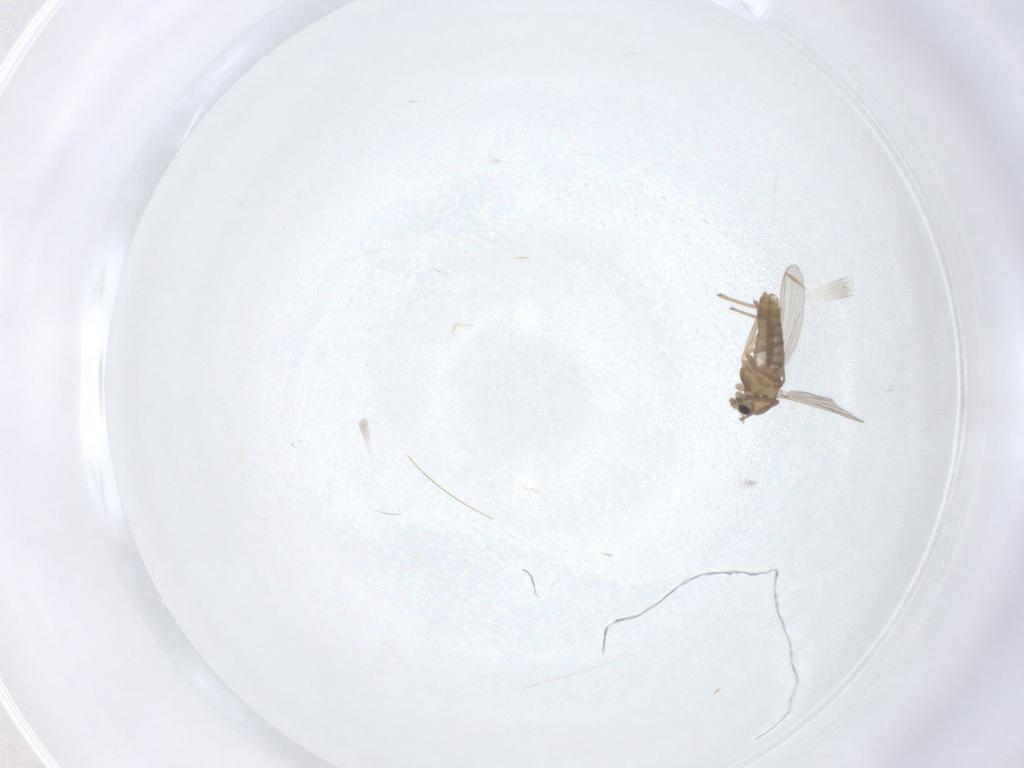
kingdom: Animalia
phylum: Arthropoda
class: Insecta
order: Diptera
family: Chironomidae
